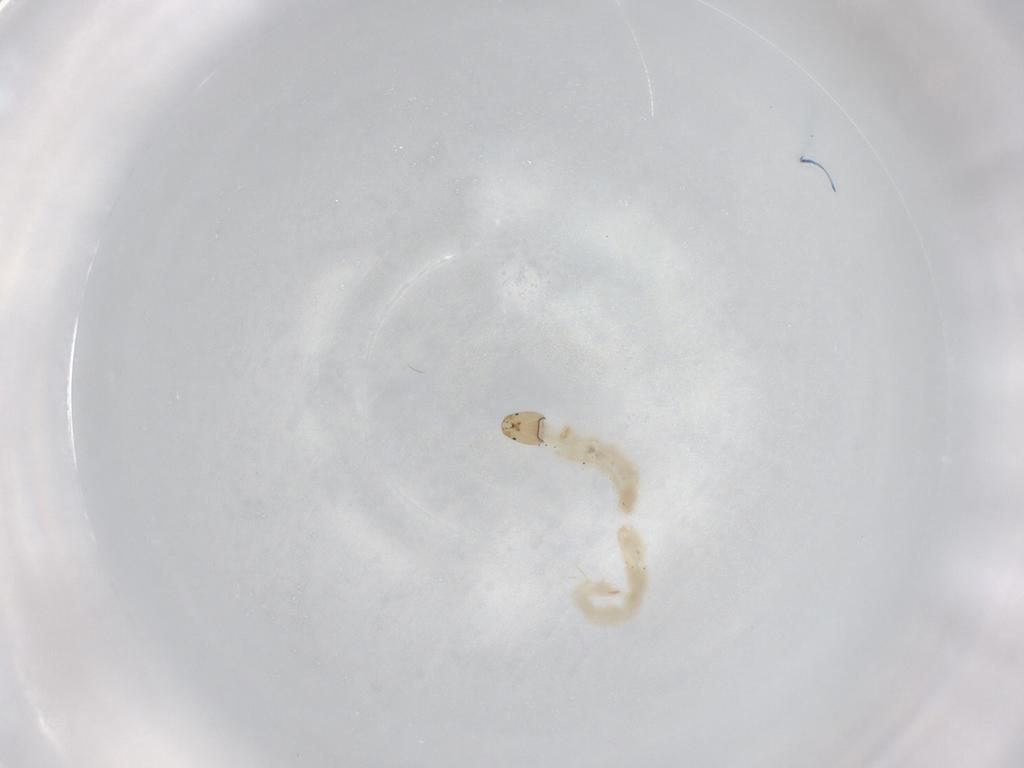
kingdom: Animalia
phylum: Arthropoda
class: Insecta
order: Diptera
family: Chironomidae
